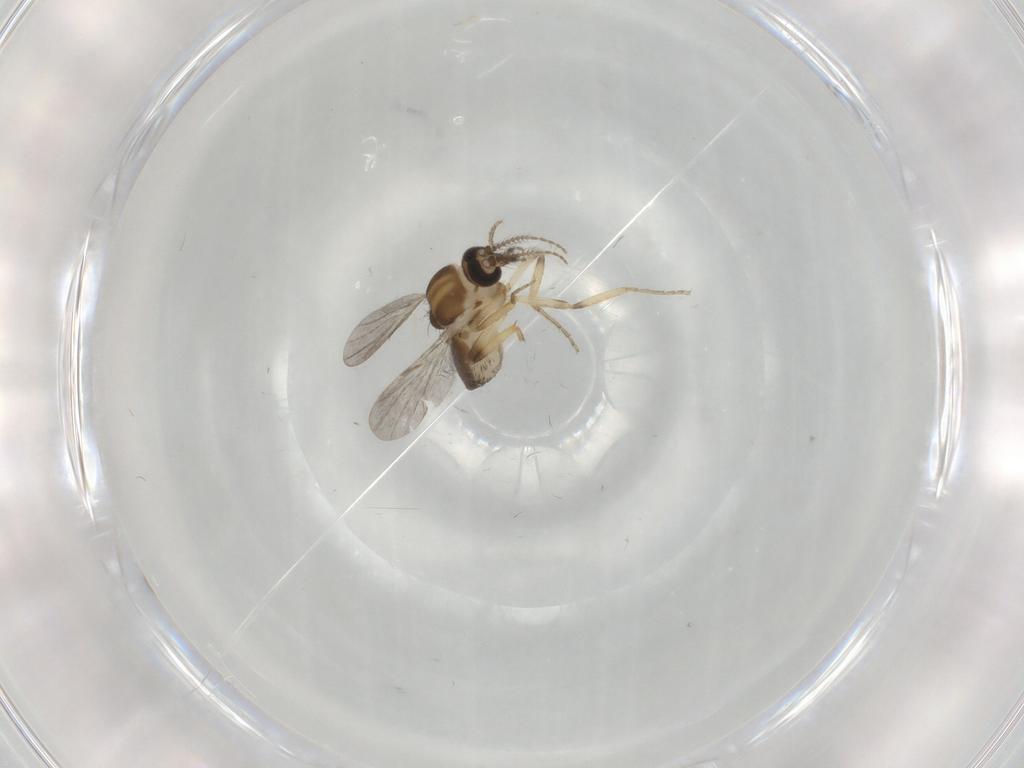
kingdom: Animalia
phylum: Arthropoda
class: Insecta
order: Diptera
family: Ceratopogonidae
